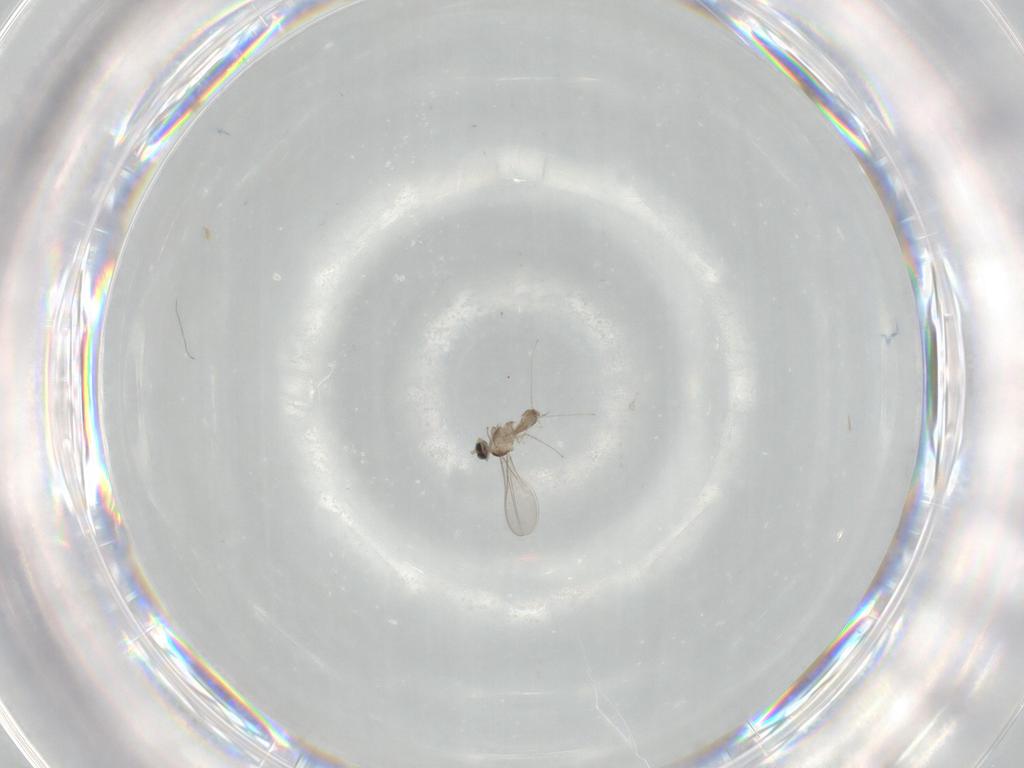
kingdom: Animalia
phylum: Arthropoda
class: Insecta
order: Diptera
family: Cecidomyiidae
